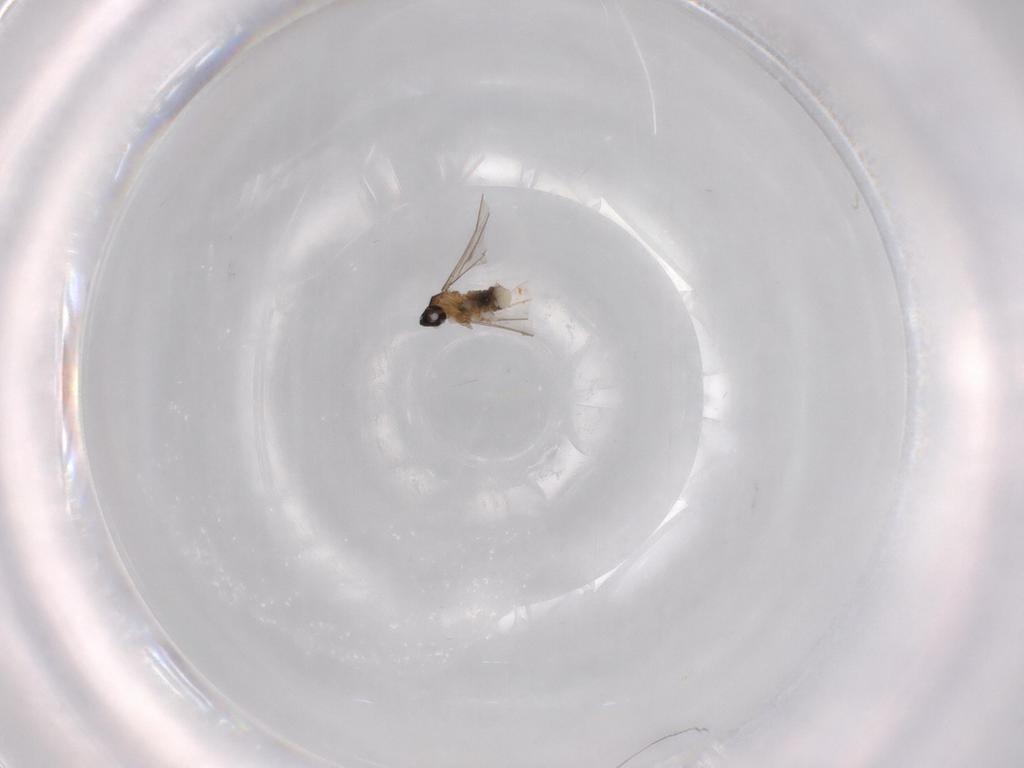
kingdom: Animalia
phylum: Arthropoda
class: Insecta
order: Diptera
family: Cecidomyiidae
